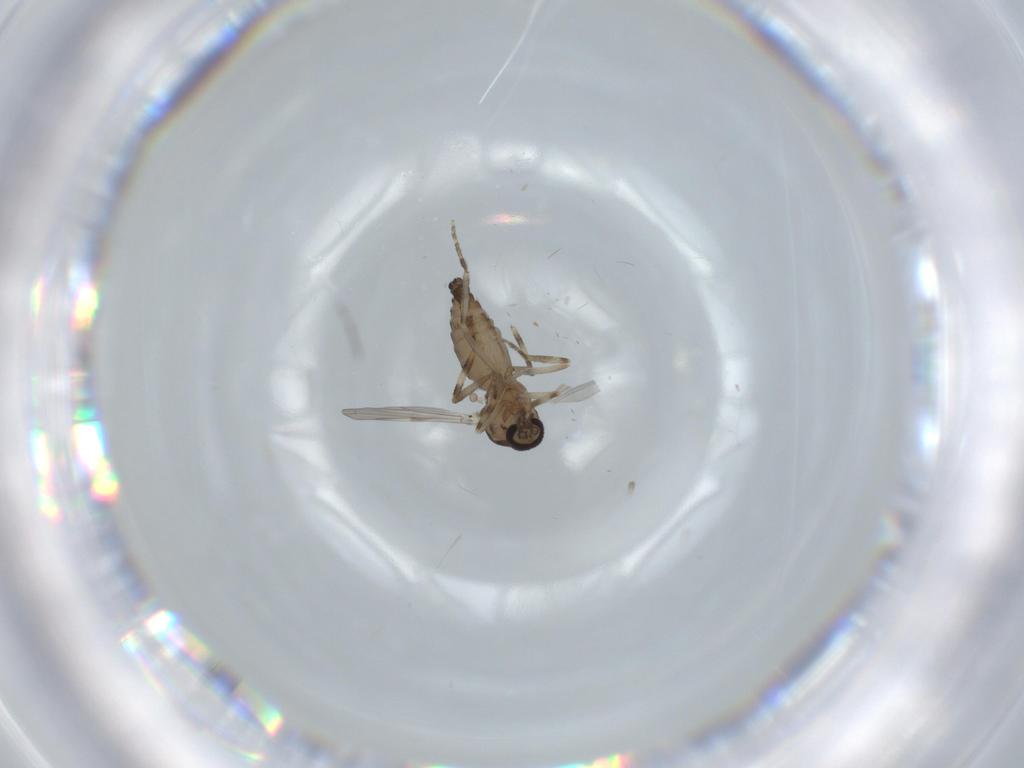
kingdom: Animalia
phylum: Arthropoda
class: Insecta
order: Diptera
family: Ceratopogonidae
